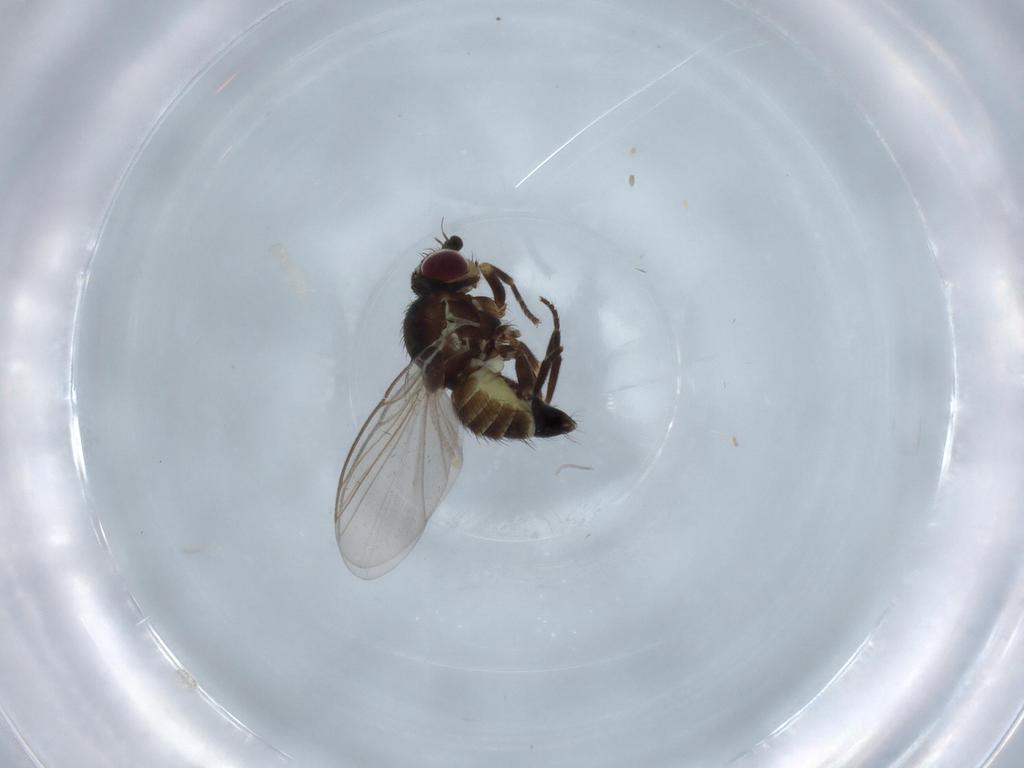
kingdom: Animalia
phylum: Arthropoda
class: Insecta
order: Diptera
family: Agromyzidae
